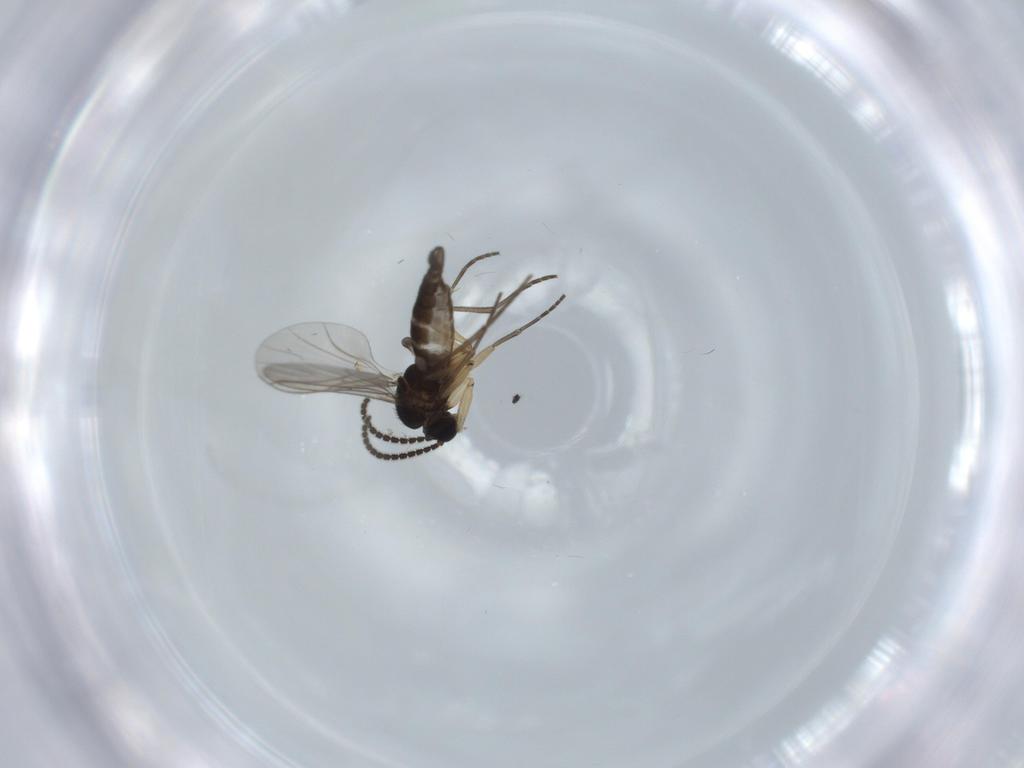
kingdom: Animalia
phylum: Arthropoda
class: Insecta
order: Diptera
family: Sciaridae
